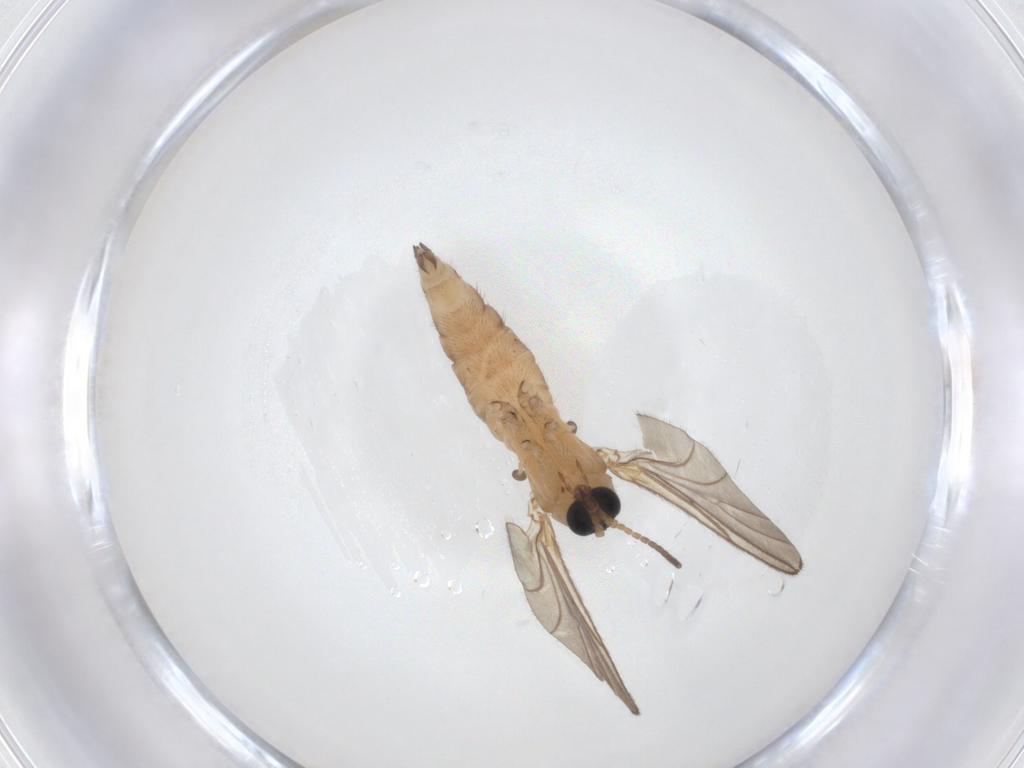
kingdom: Animalia
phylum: Arthropoda
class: Insecta
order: Diptera
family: Sciaridae
